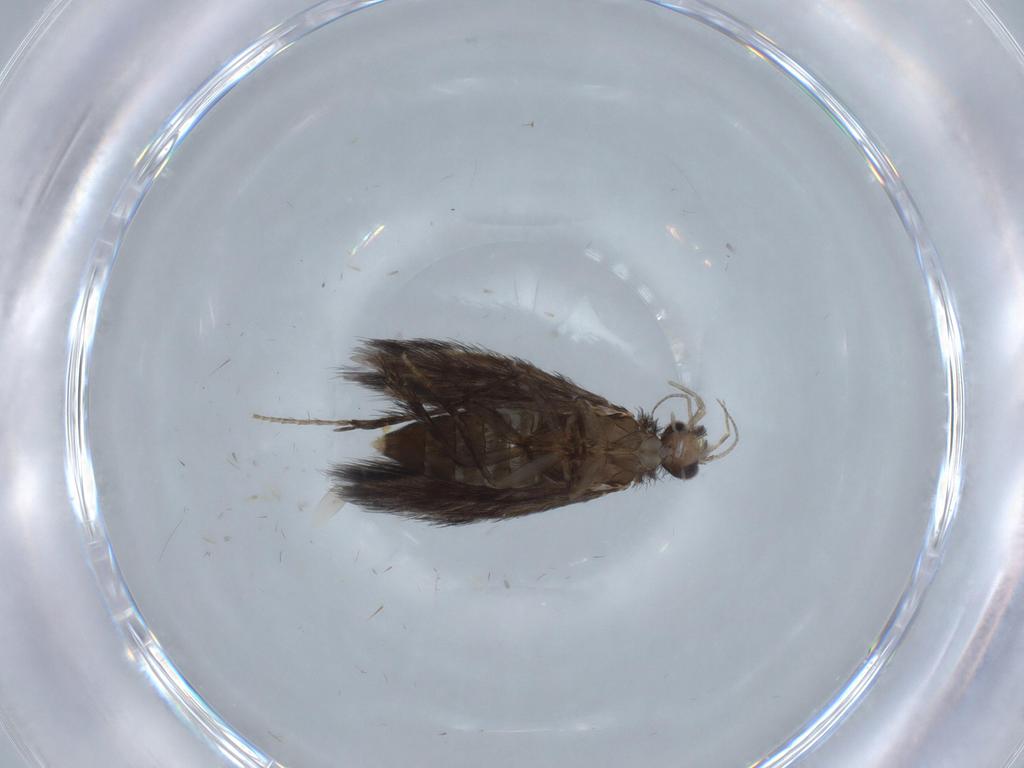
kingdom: Animalia
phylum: Arthropoda
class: Insecta
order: Trichoptera
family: Hydroptilidae
